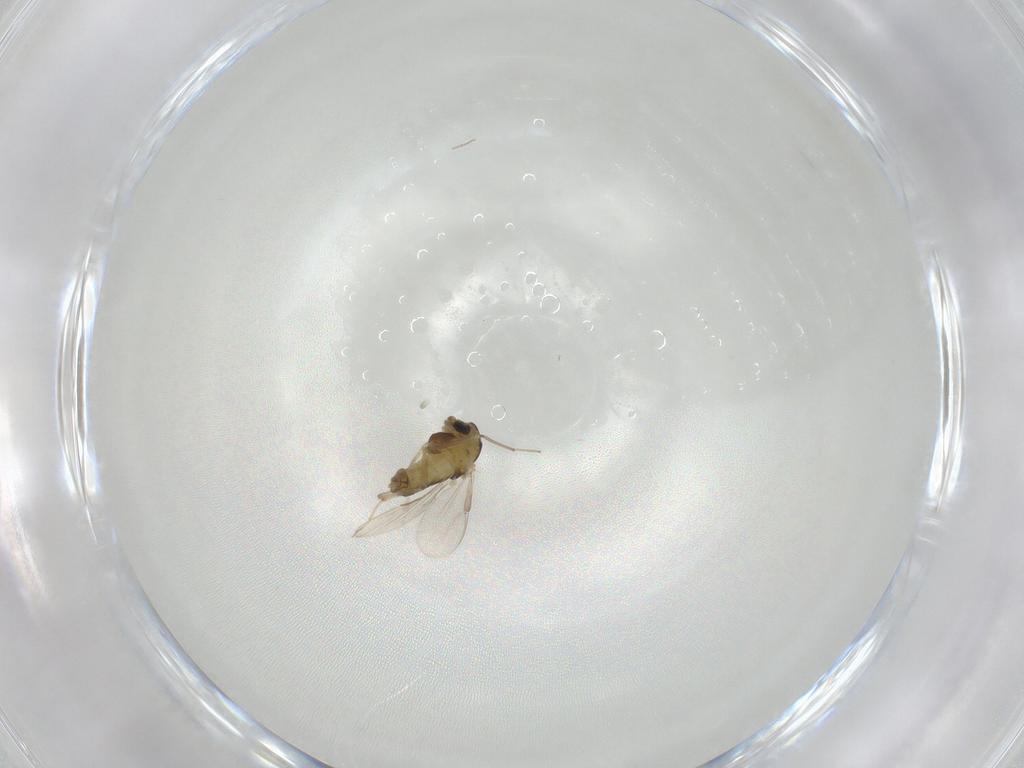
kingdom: Animalia
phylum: Arthropoda
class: Insecta
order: Diptera
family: Chironomidae
